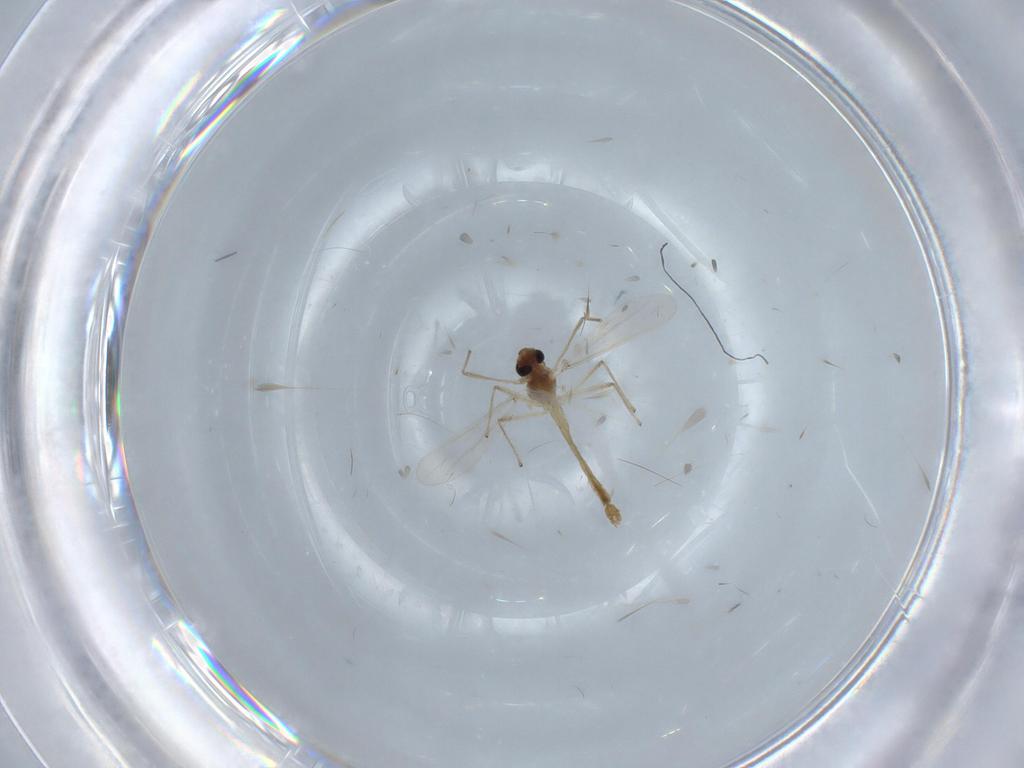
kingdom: Animalia
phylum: Arthropoda
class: Insecta
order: Diptera
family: Chironomidae
